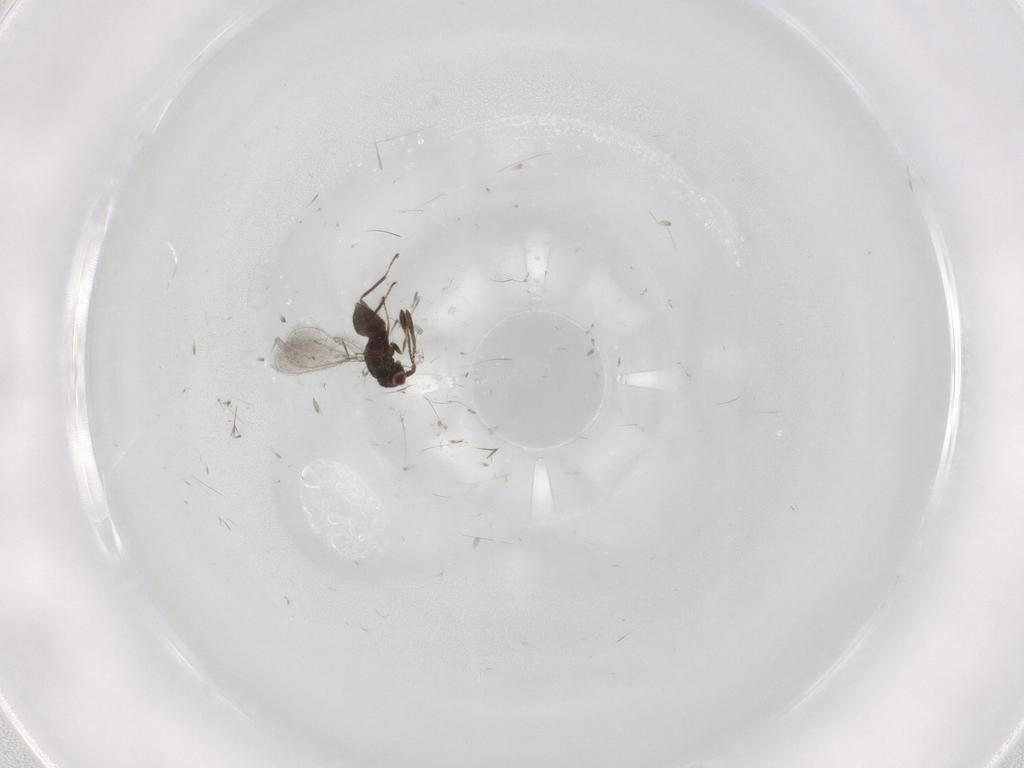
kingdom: Animalia
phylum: Arthropoda
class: Insecta
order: Hymenoptera
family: Mymaridae
